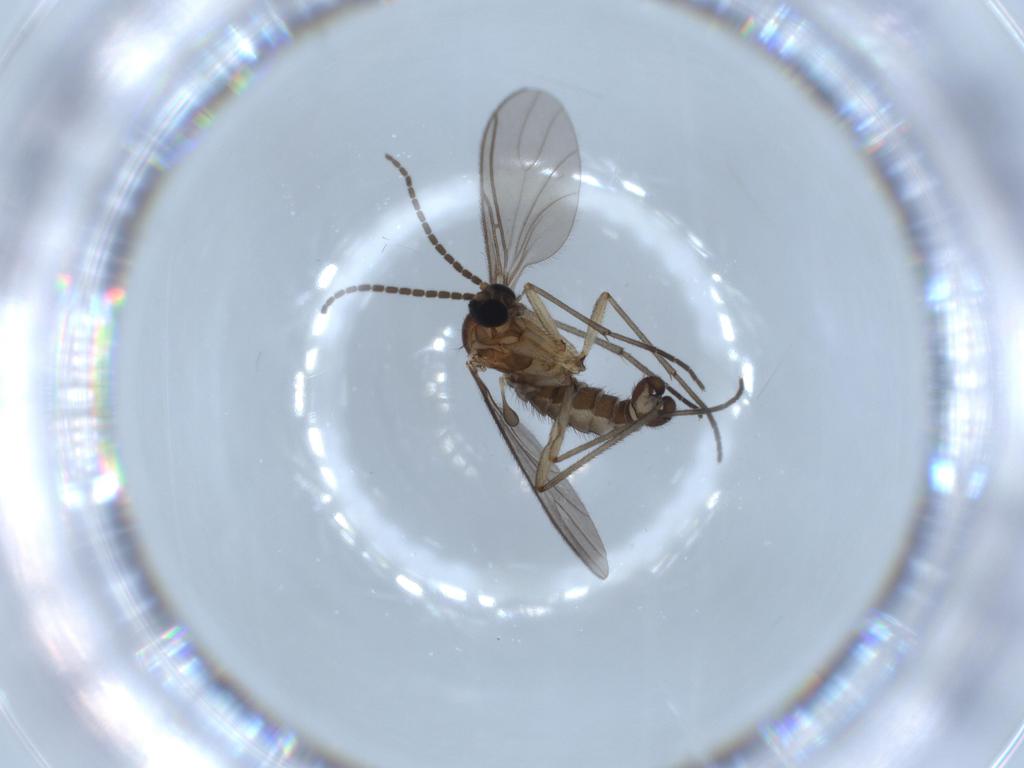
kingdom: Animalia
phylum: Arthropoda
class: Insecta
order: Diptera
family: Sciaridae
